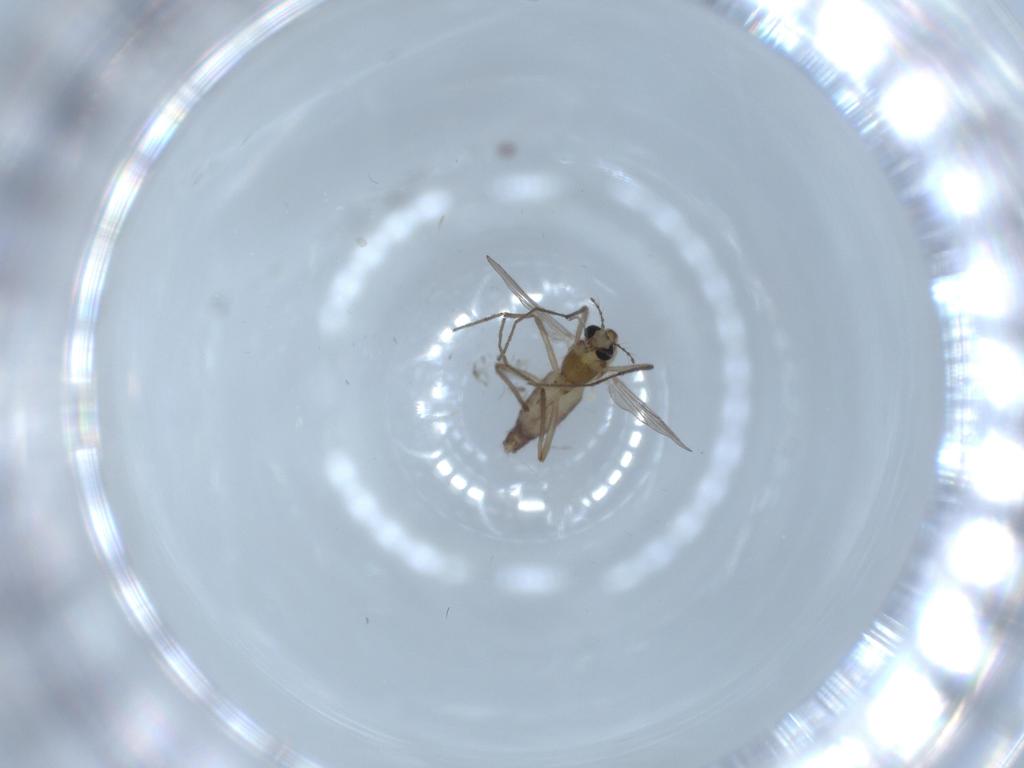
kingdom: Animalia
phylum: Arthropoda
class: Insecta
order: Diptera
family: Chironomidae
